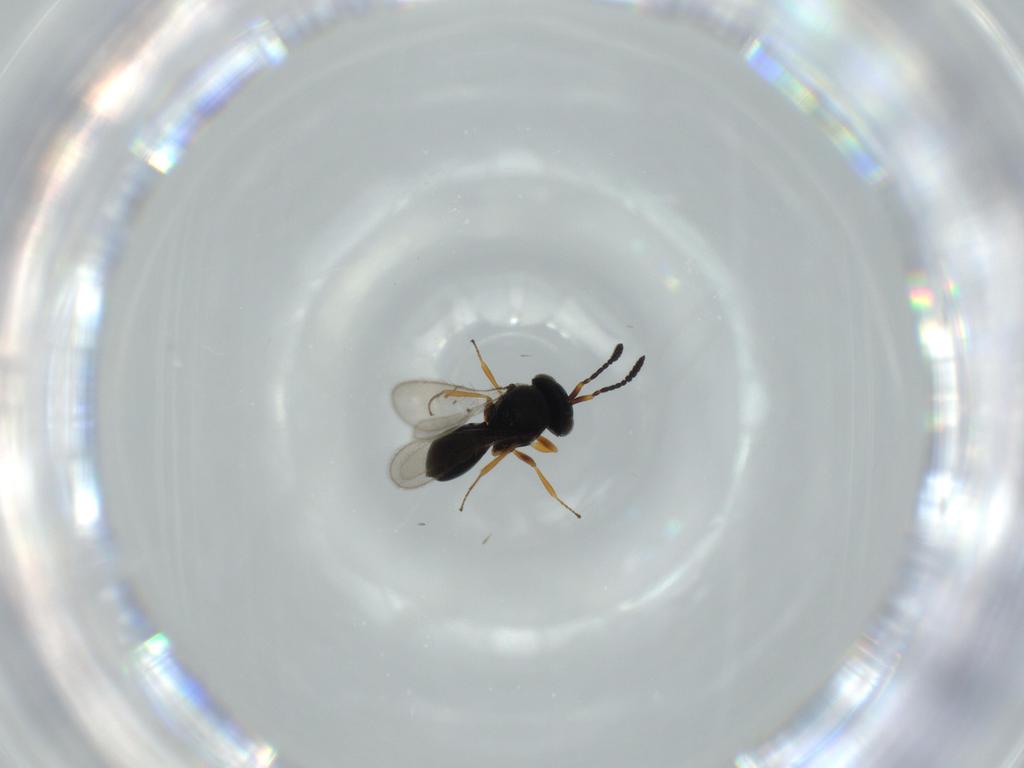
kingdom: Animalia
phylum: Arthropoda
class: Insecta
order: Hymenoptera
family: Scelionidae
